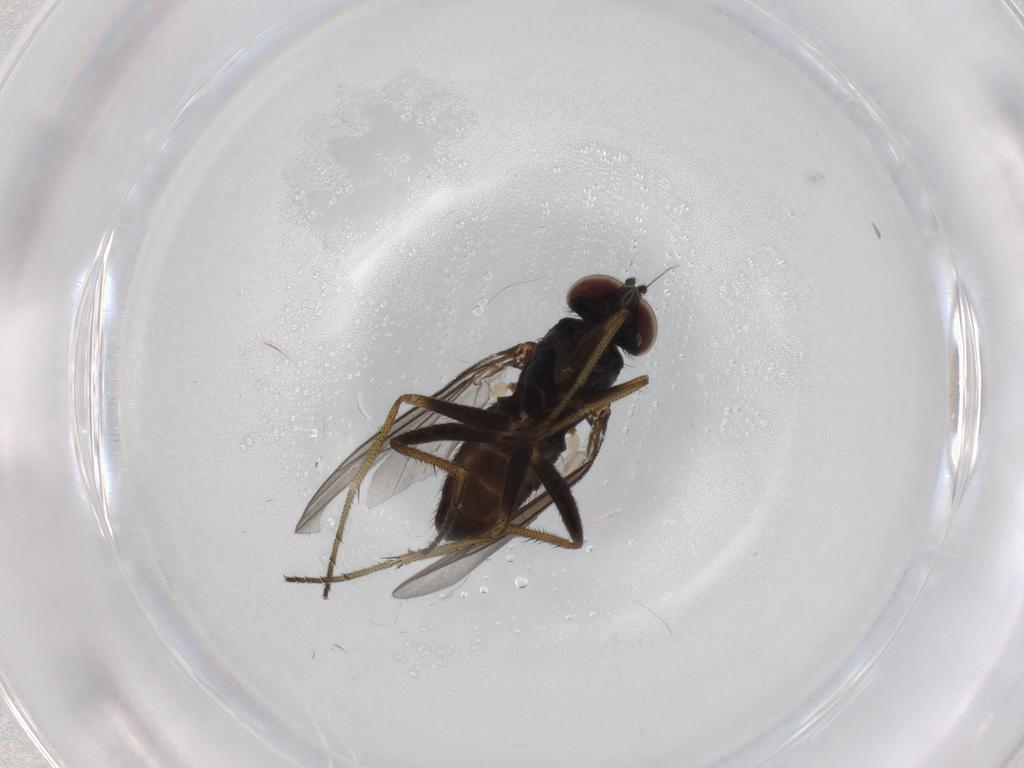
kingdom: Animalia
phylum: Arthropoda
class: Insecta
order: Diptera
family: Dolichopodidae
